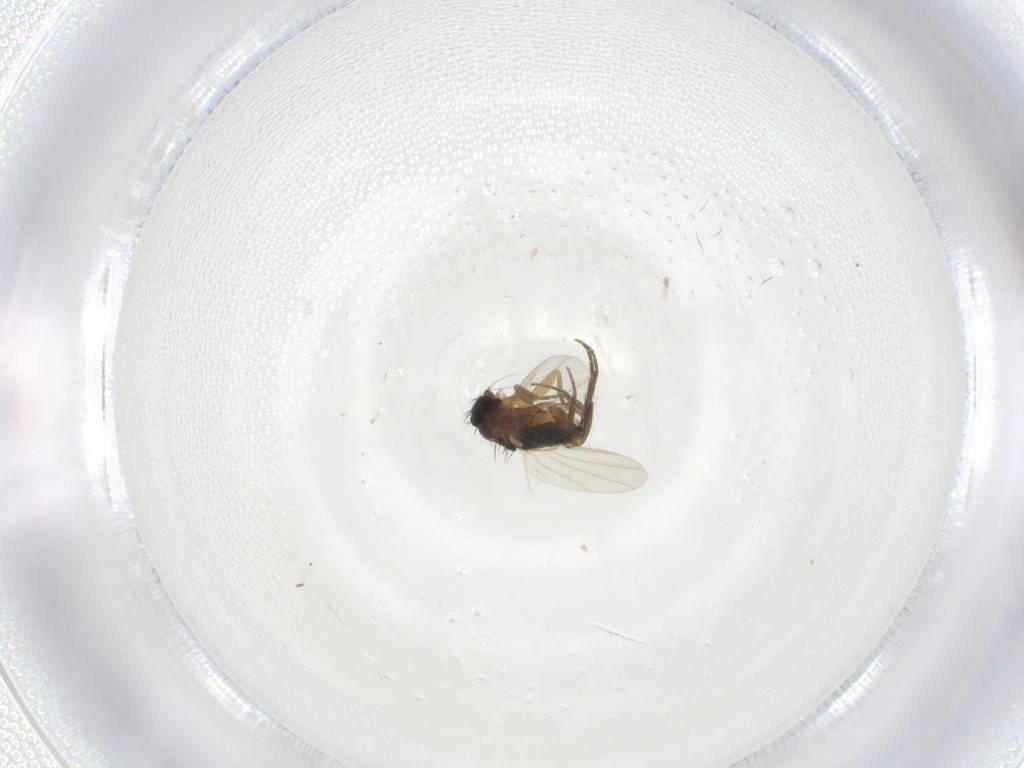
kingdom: Animalia
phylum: Arthropoda
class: Insecta
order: Diptera
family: Phoridae
